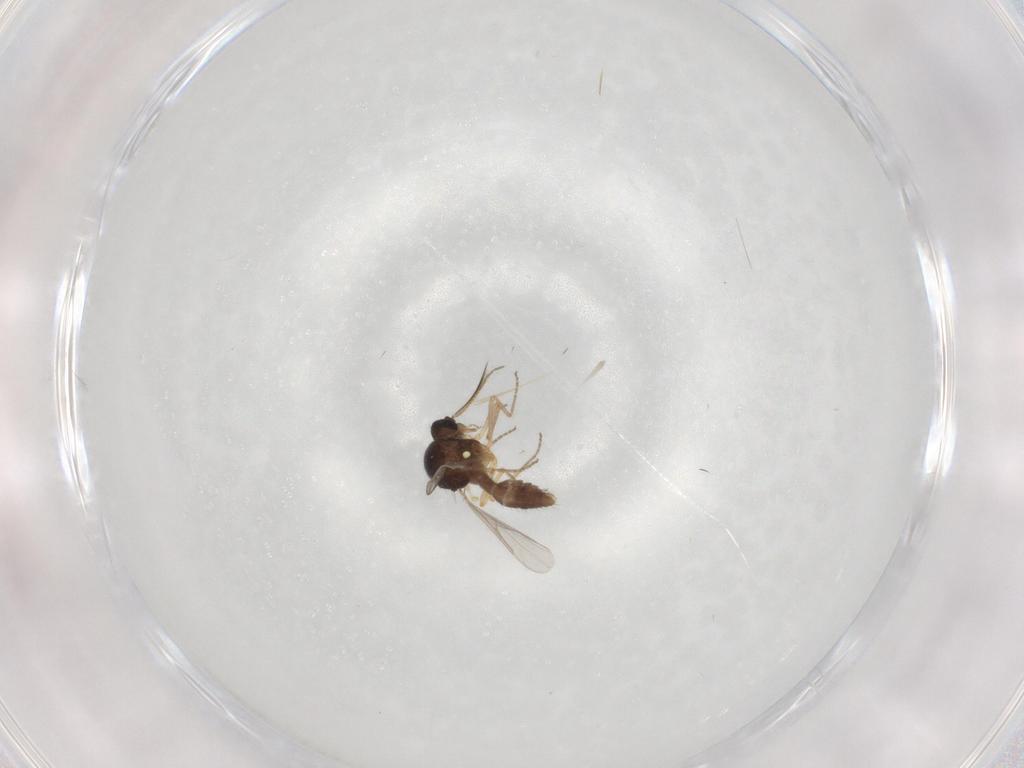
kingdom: Animalia
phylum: Arthropoda
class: Insecta
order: Diptera
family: Ceratopogonidae
